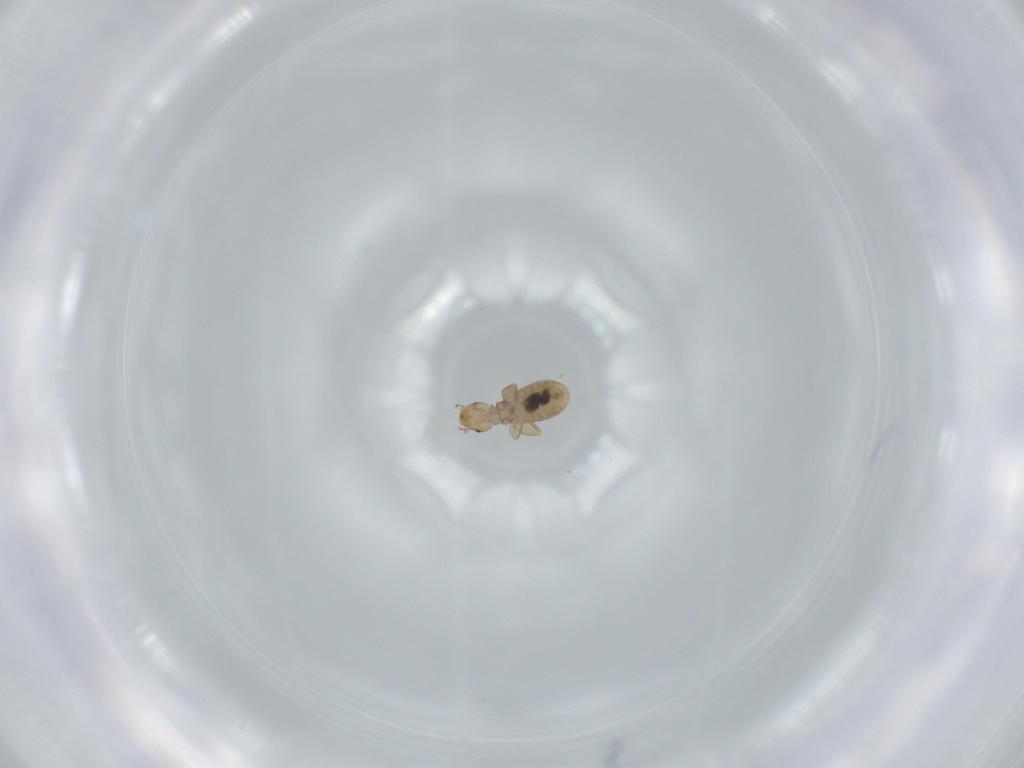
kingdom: Animalia
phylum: Arthropoda
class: Insecta
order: Psocodea
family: Liposcelididae
